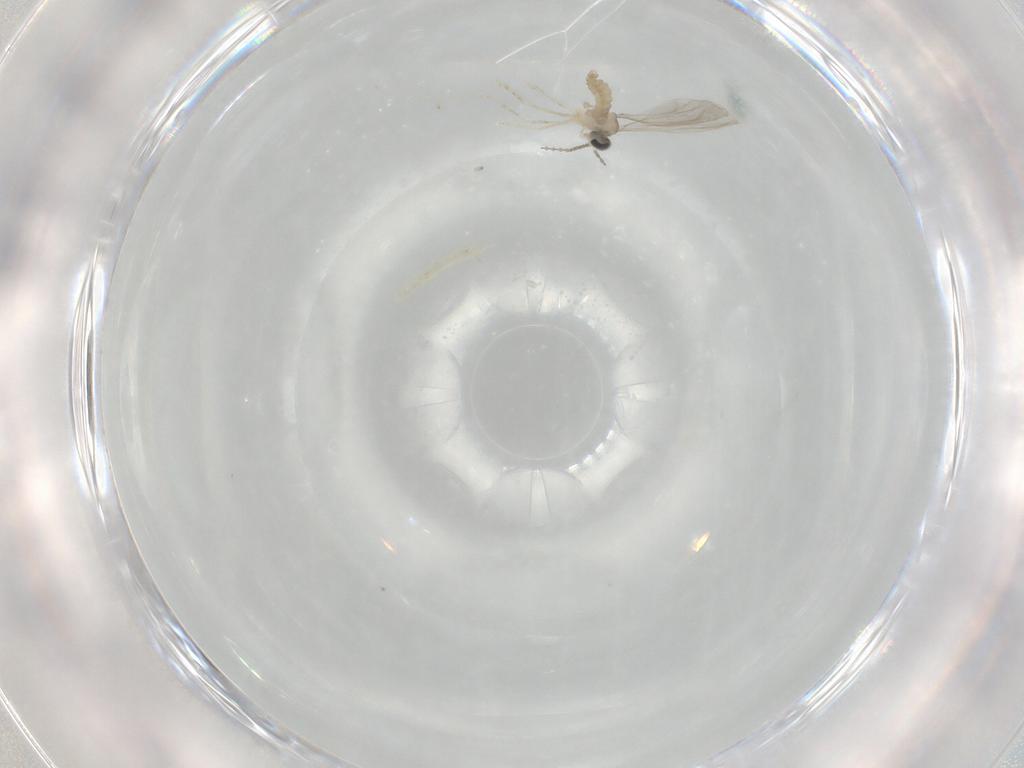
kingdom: Animalia
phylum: Arthropoda
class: Insecta
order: Diptera
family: Cecidomyiidae
